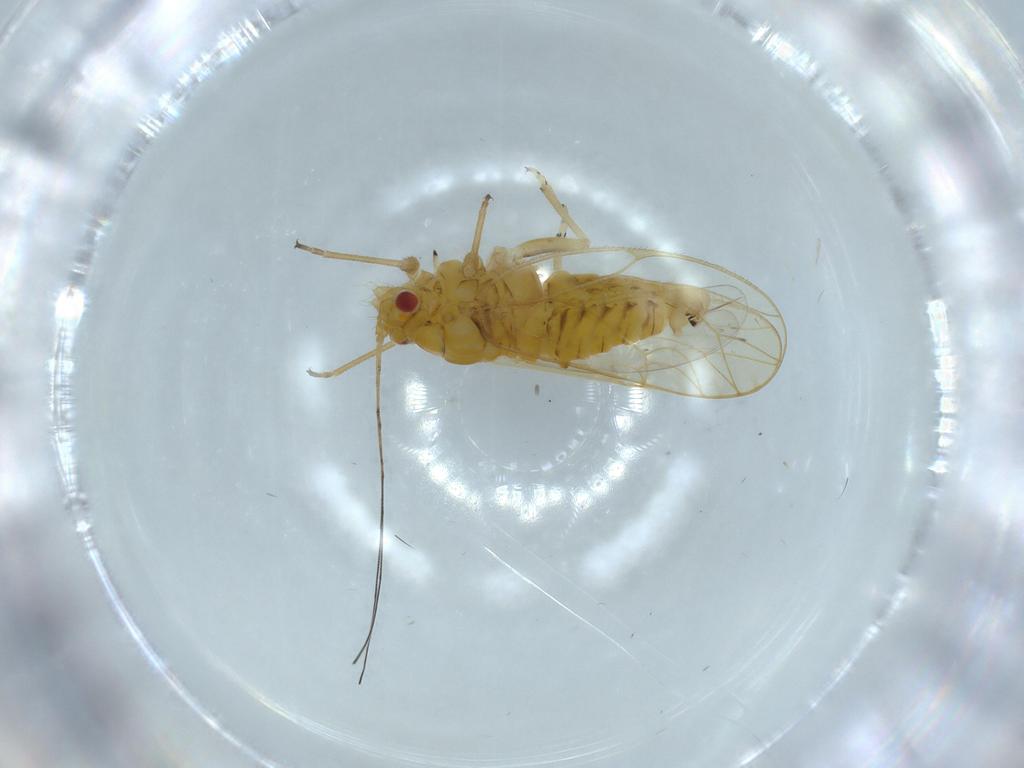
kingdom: Animalia
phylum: Arthropoda
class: Insecta
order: Hemiptera
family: Psyllidae
